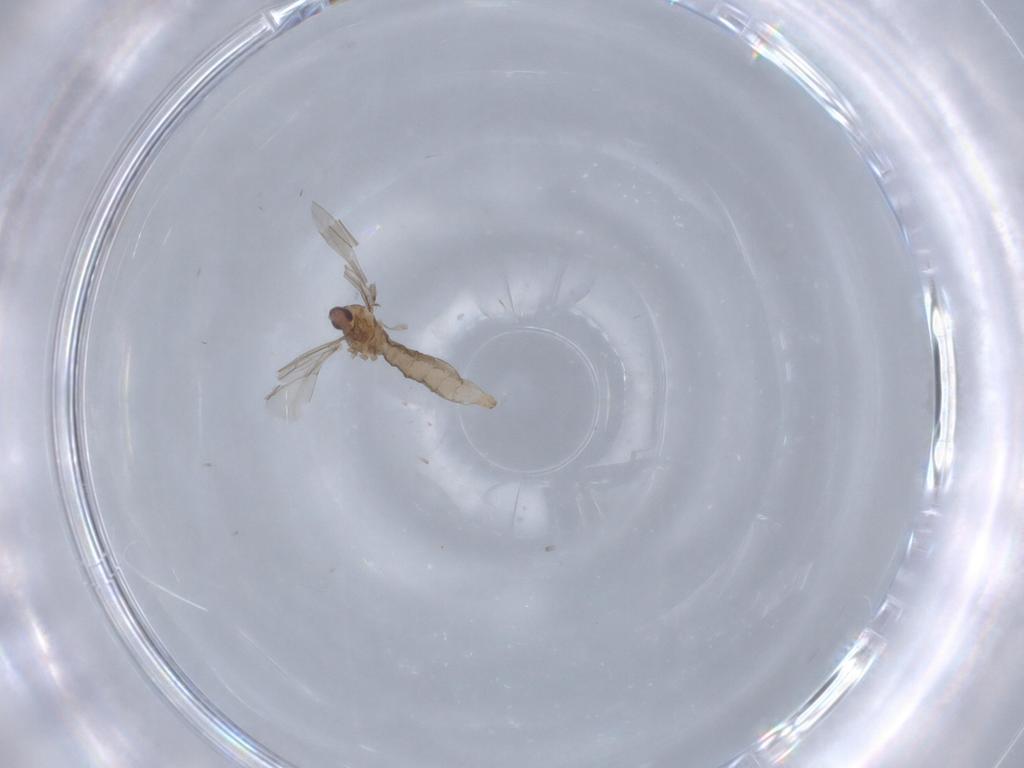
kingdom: Animalia
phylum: Arthropoda
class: Insecta
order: Diptera
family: Cecidomyiidae
